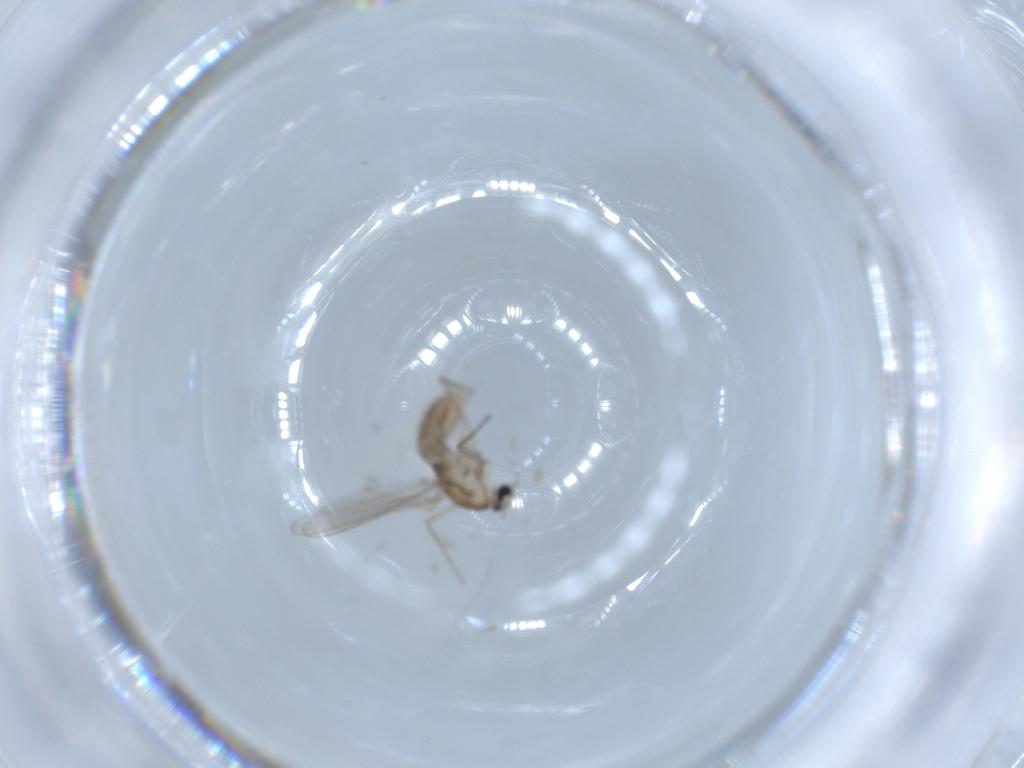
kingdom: Animalia
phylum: Arthropoda
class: Insecta
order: Diptera
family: Chironomidae
